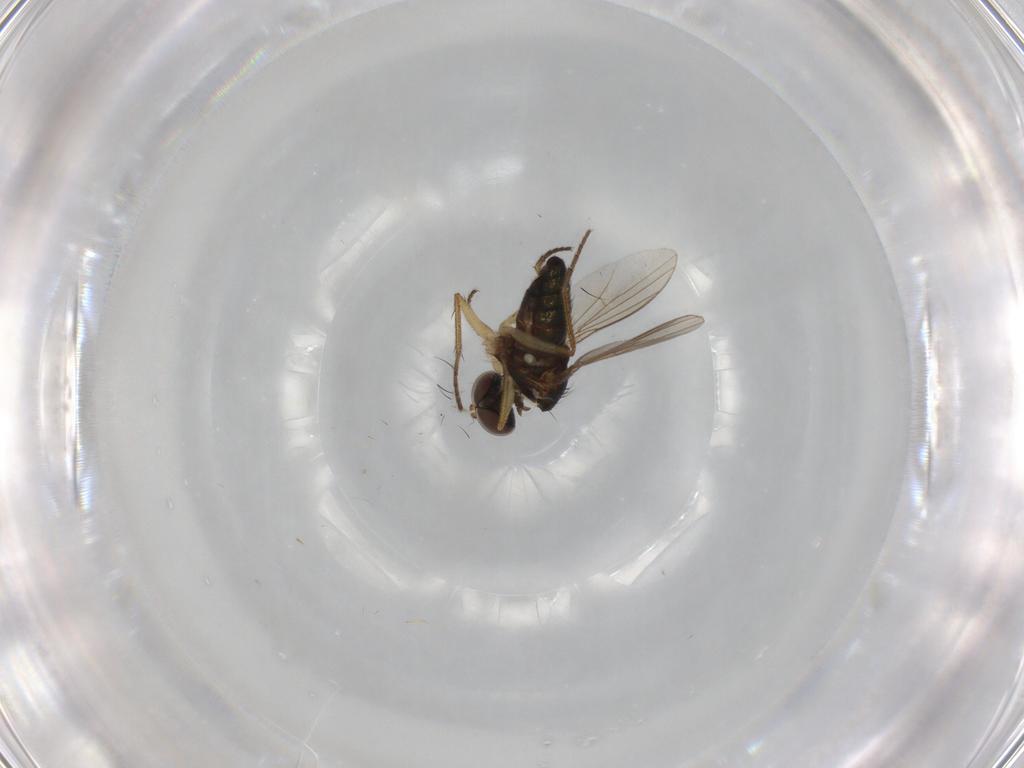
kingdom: Animalia
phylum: Arthropoda
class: Insecta
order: Diptera
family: Dolichopodidae
